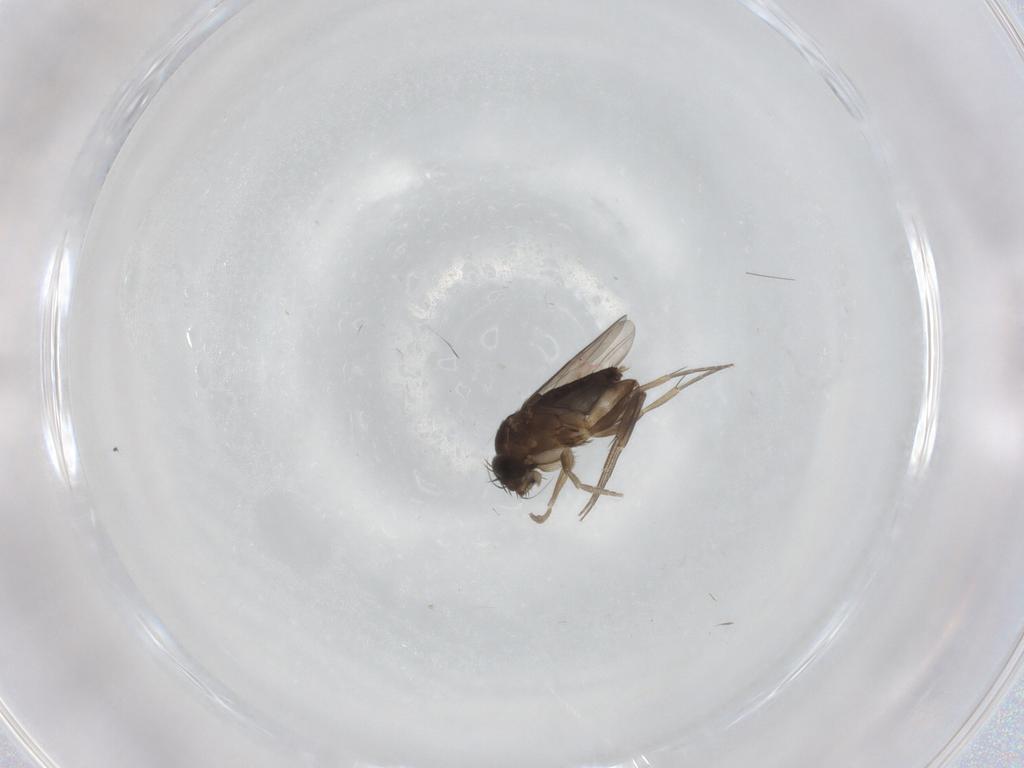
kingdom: Animalia
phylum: Arthropoda
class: Insecta
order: Diptera
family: Phoridae
